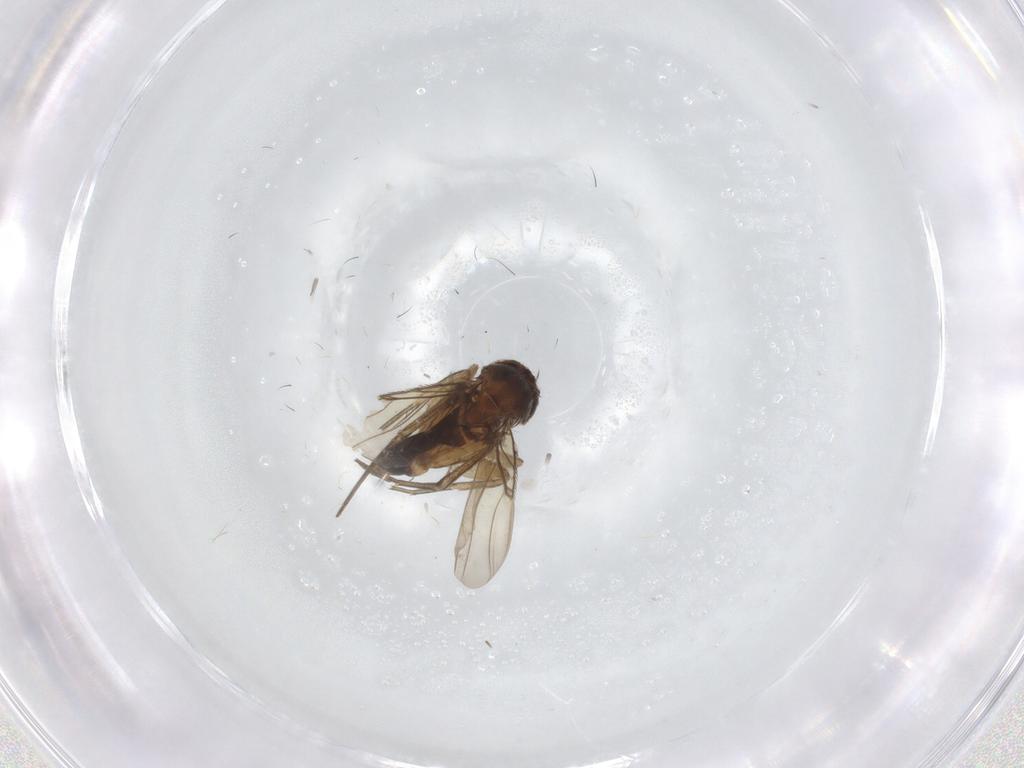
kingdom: Animalia
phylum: Arthropoda
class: Insecta
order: Diptera
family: Phoridae
